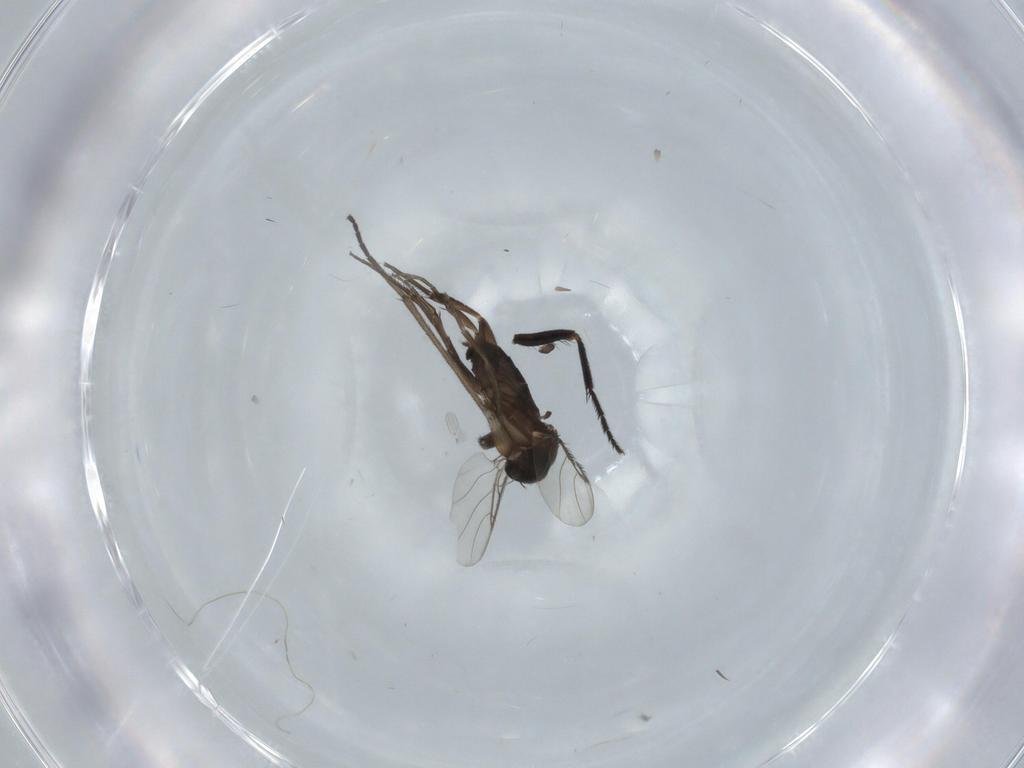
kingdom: Animalia
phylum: Arthropoda
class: Insecta
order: Diptera
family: Phoridae
